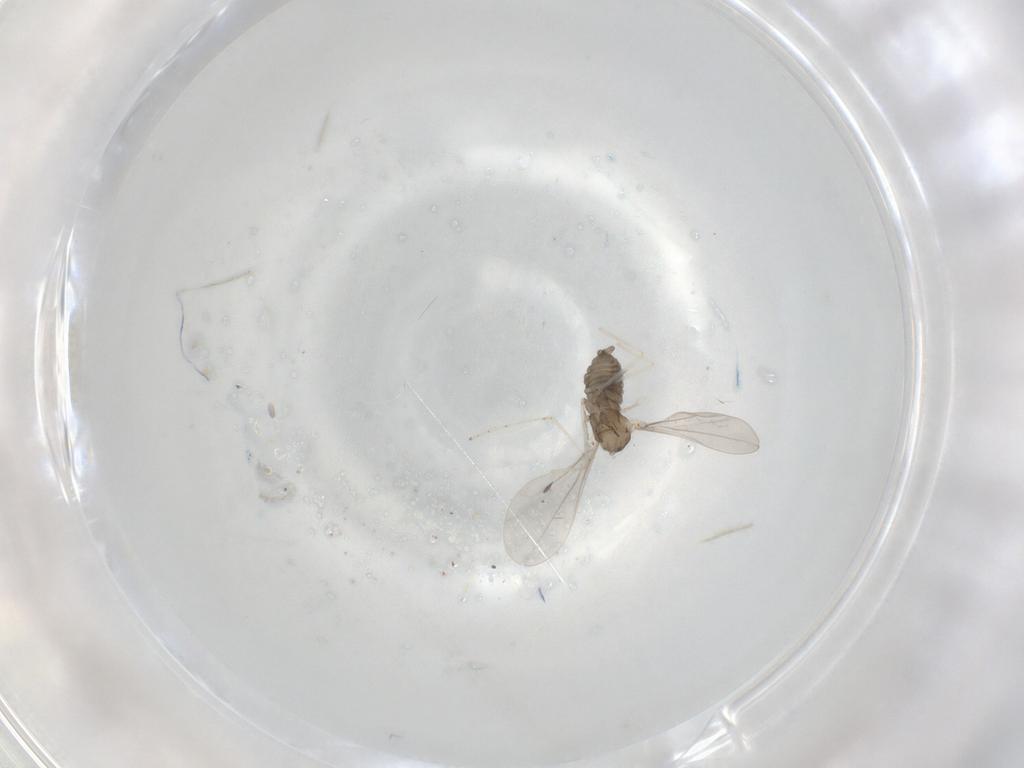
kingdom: Animalia
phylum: Arthropoda
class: Insecta
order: Diptera
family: Cecidomyiidae
